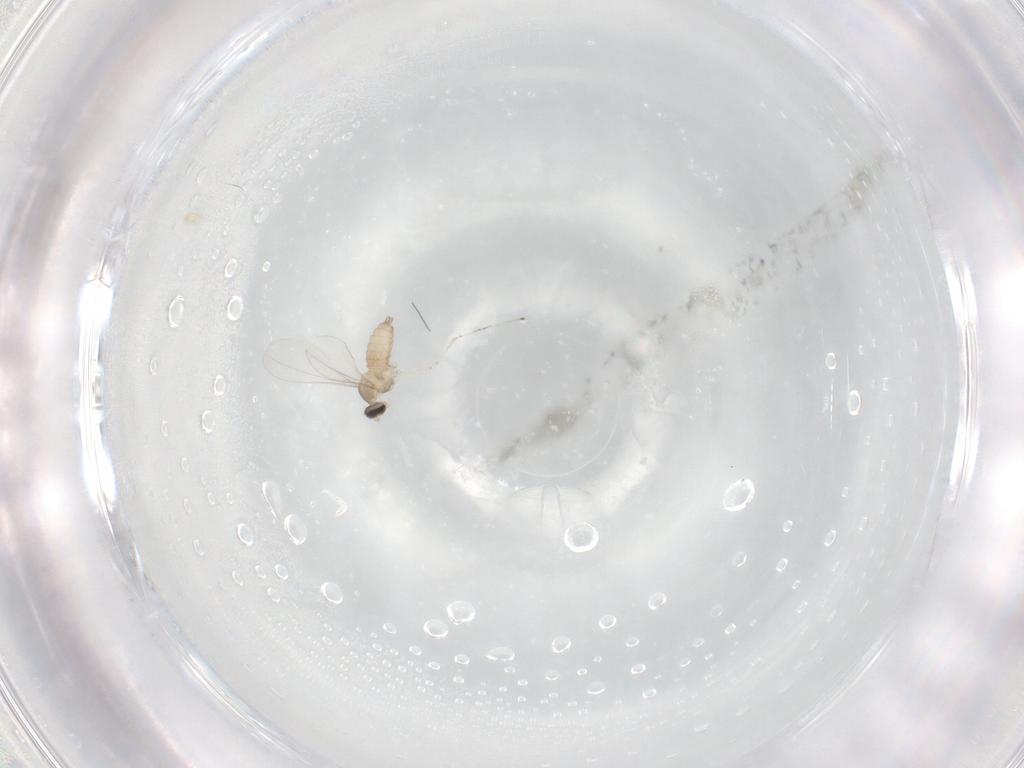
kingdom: Animalia
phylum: Arthropoda
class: Insecta
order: Diptera
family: Cecidomyiidae
